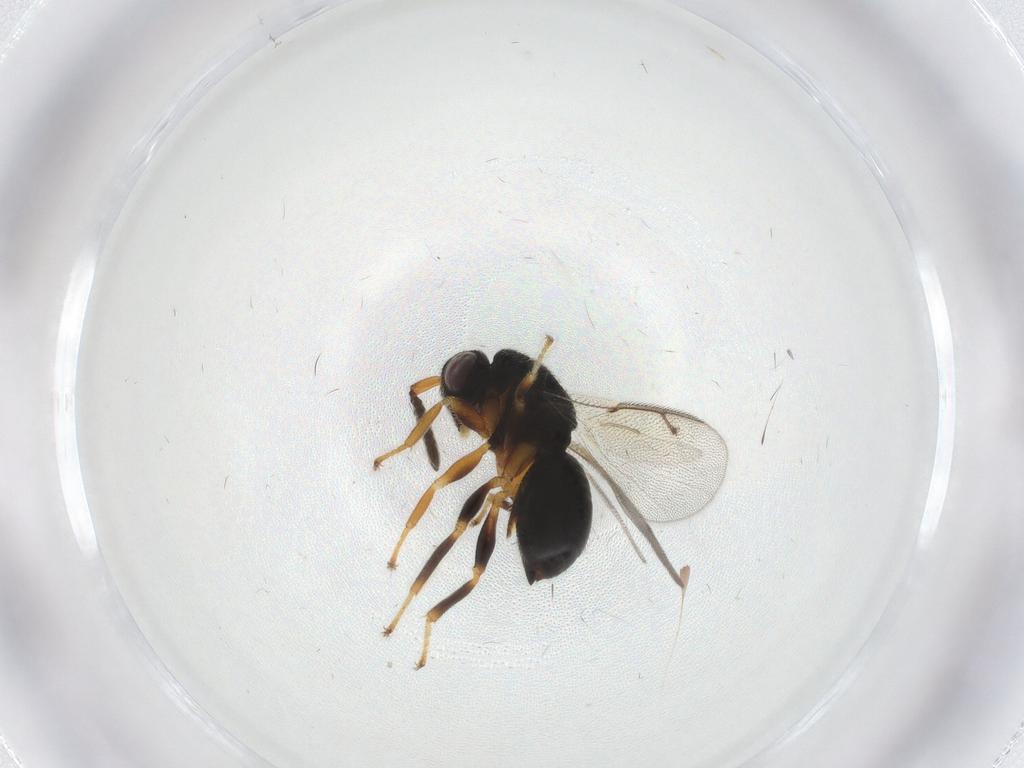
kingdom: Animalia
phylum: Arthropoda
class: Insecta
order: Hymenoptera
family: Eurytomidae
